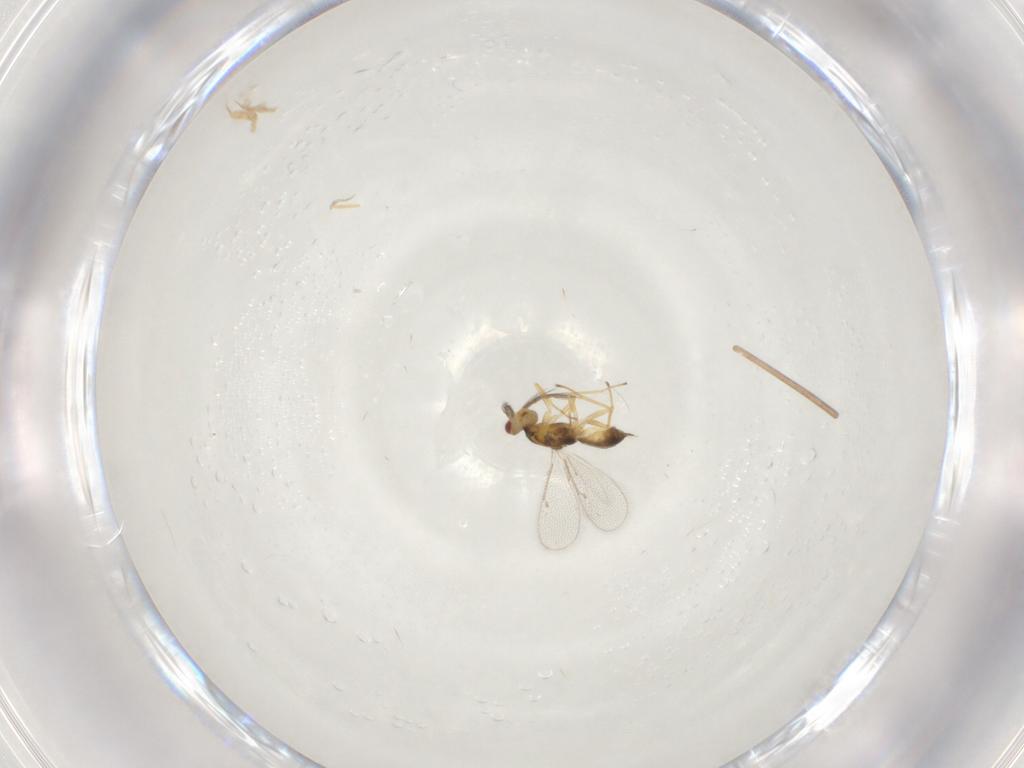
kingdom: Animalia
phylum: Arthropoda
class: Insecta
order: Hymenoptera
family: Eulophidae
